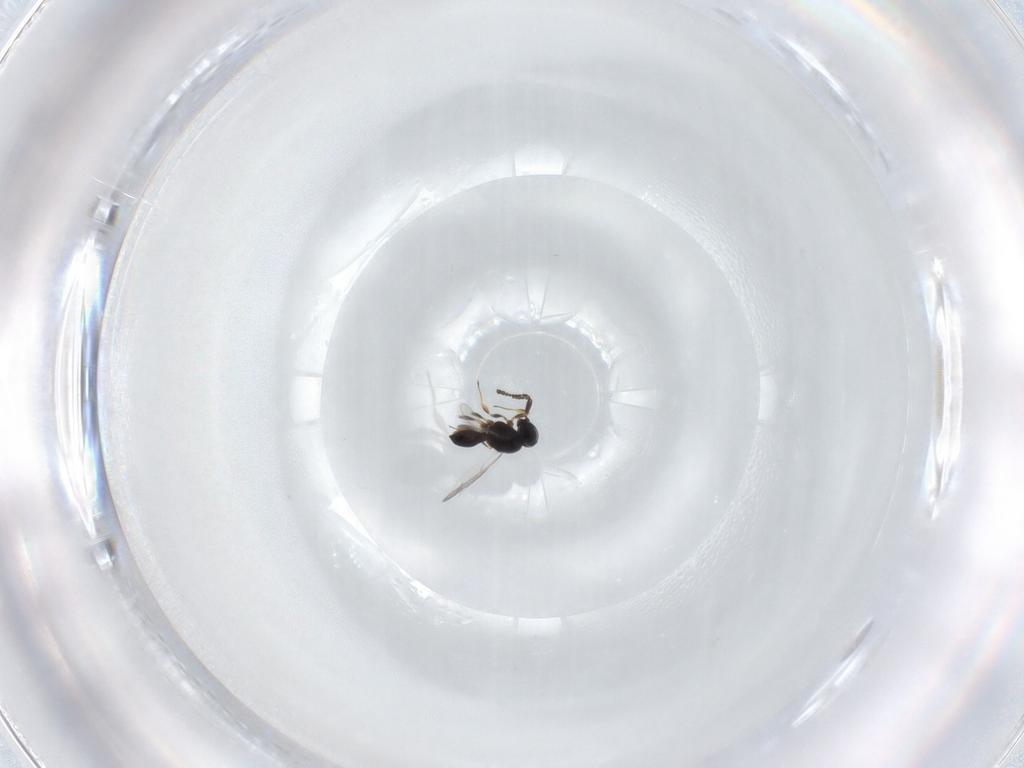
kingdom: Animalia
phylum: Arthropoda
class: Insecta
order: Hymenoptera
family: Scelionidae
